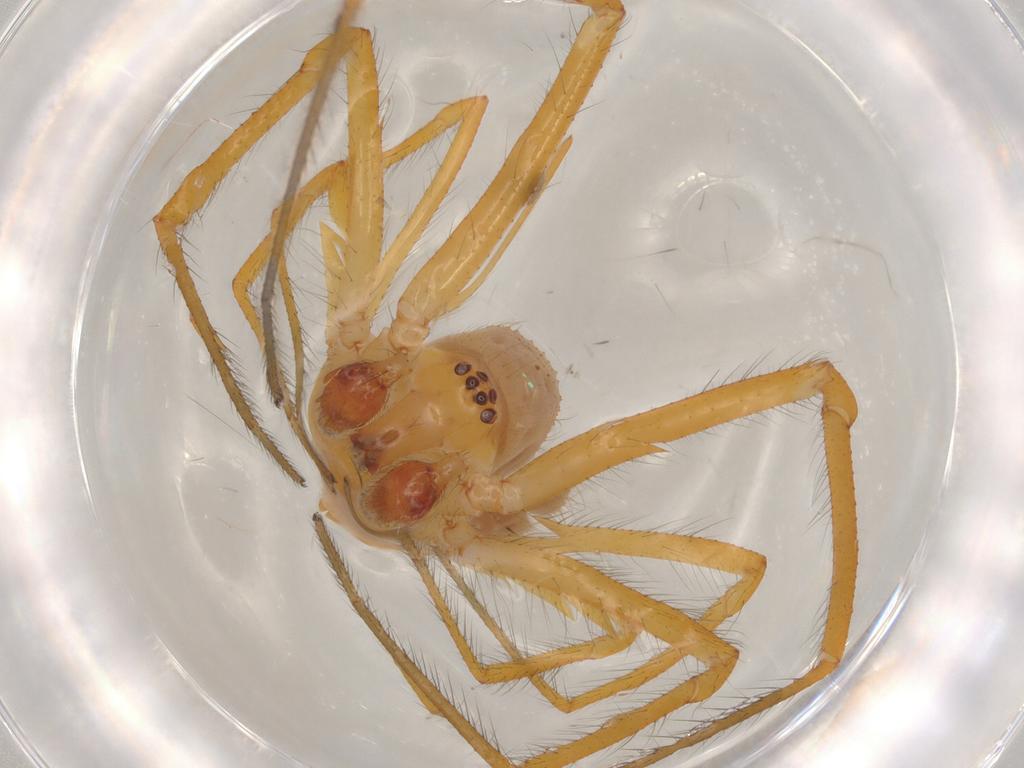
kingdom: Animalia
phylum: Arthropoda
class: Arachnida
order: Araneae
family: Theridiidae
